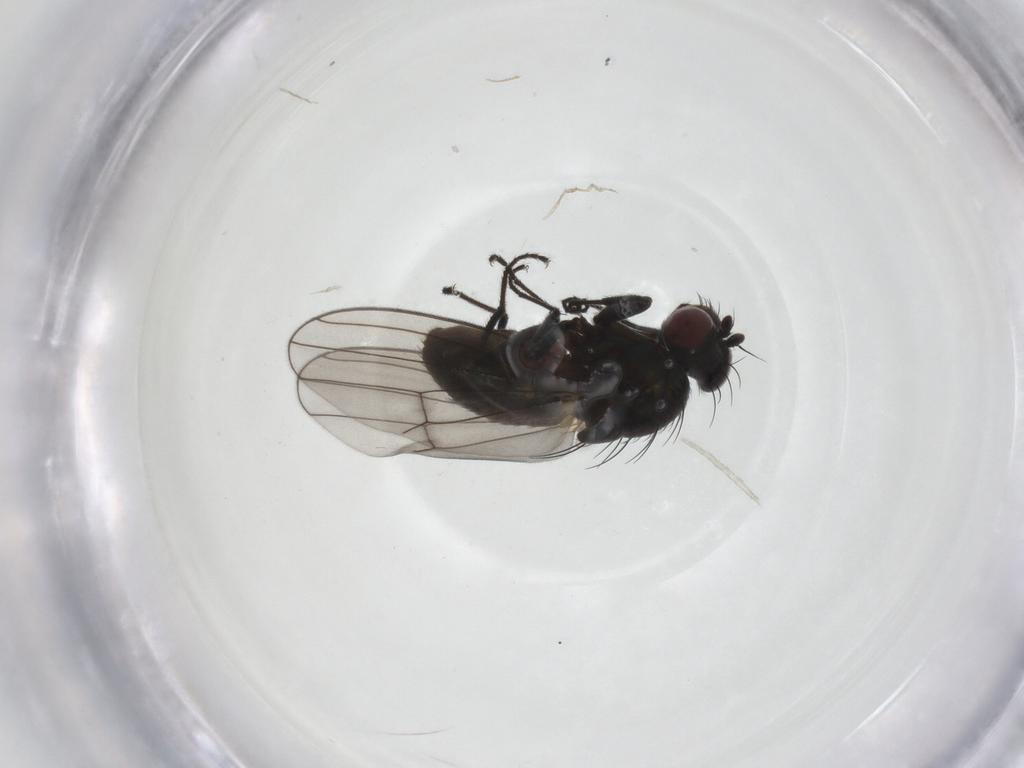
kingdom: Animalia
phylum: Arthropoda
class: Insecta
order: Diptera
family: Ephydridae
